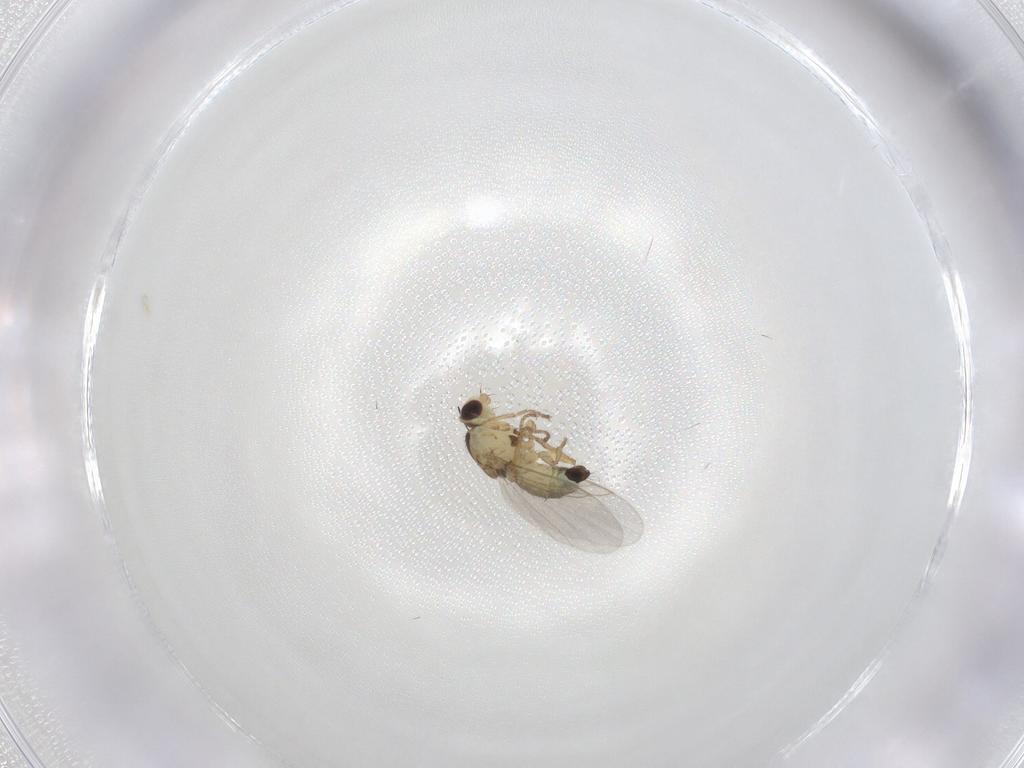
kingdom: Animalia
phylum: Arthropoda
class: Insecta
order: Diptera
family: Agromyzidae
